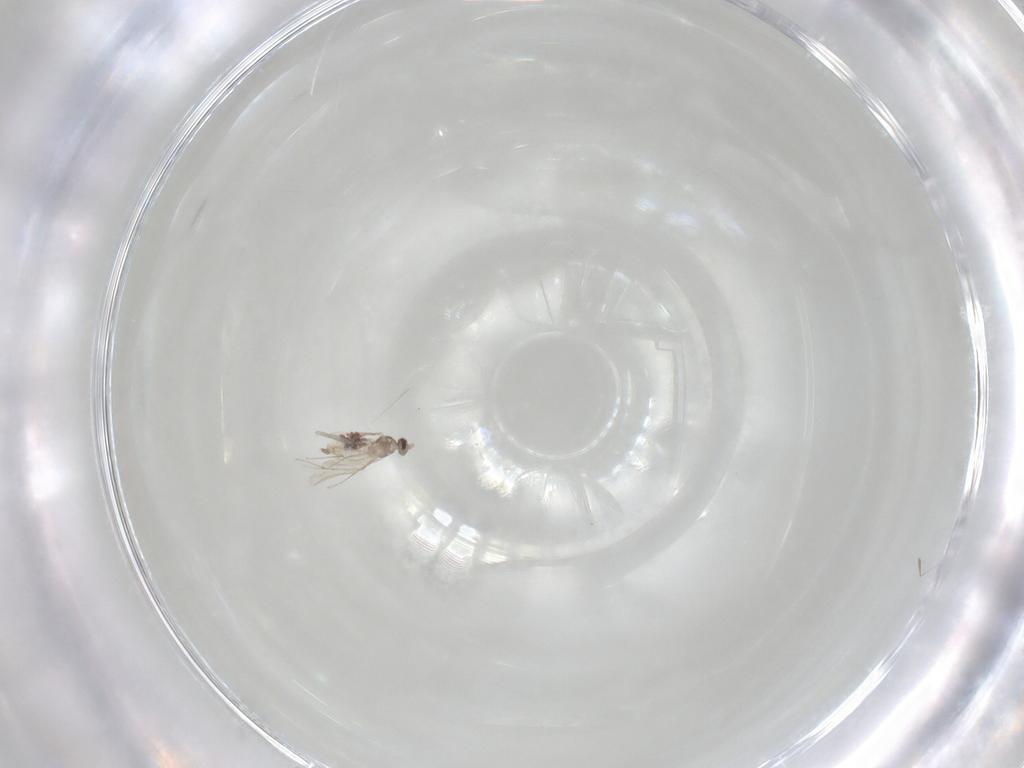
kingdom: Animalia
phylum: Arthropoda
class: Insecta
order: Diptera
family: Cecidomyiidae
